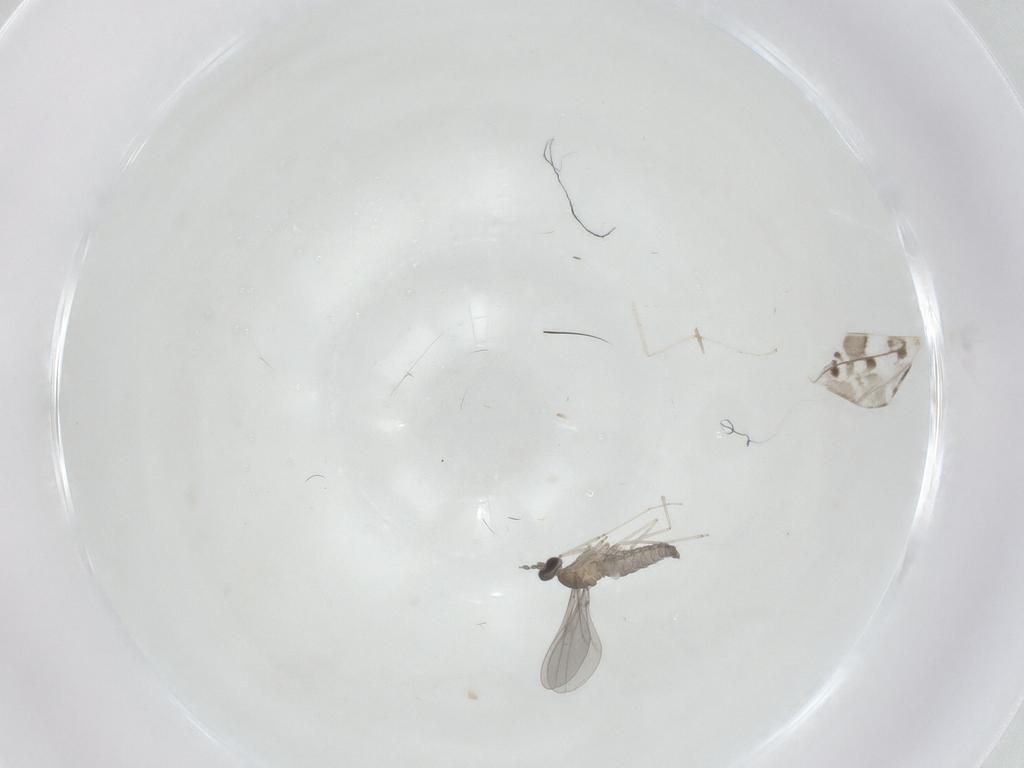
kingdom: Animalia
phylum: Arthropoda
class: Insecta
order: Diptera
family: Cecidomyiidae
